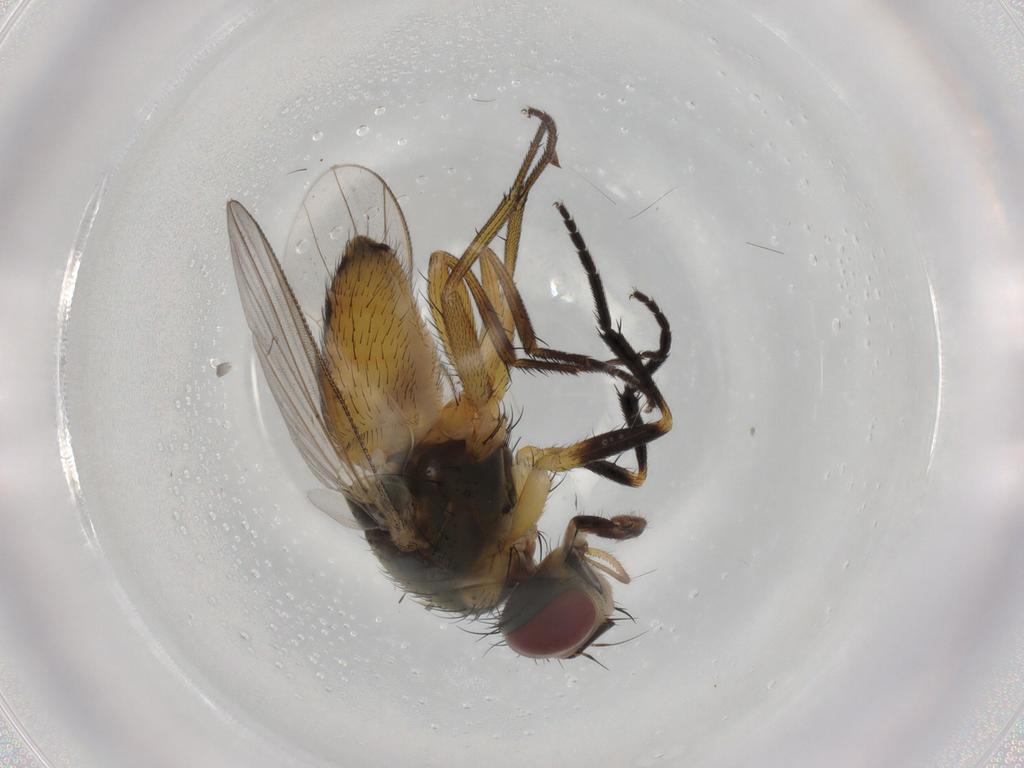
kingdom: Animalia
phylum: Arthropoda
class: Insecta
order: Diptera
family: Muscidae
